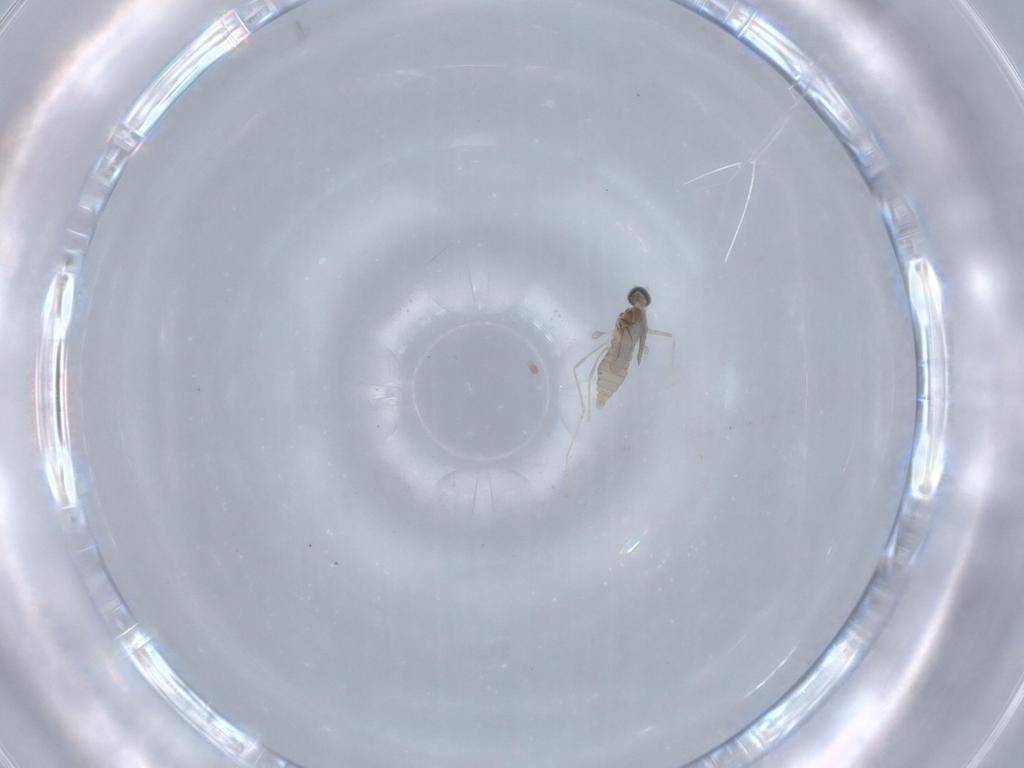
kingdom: Animalia
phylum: Arthropoda
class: Insecta
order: Diptera
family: Cecidomyiidae
